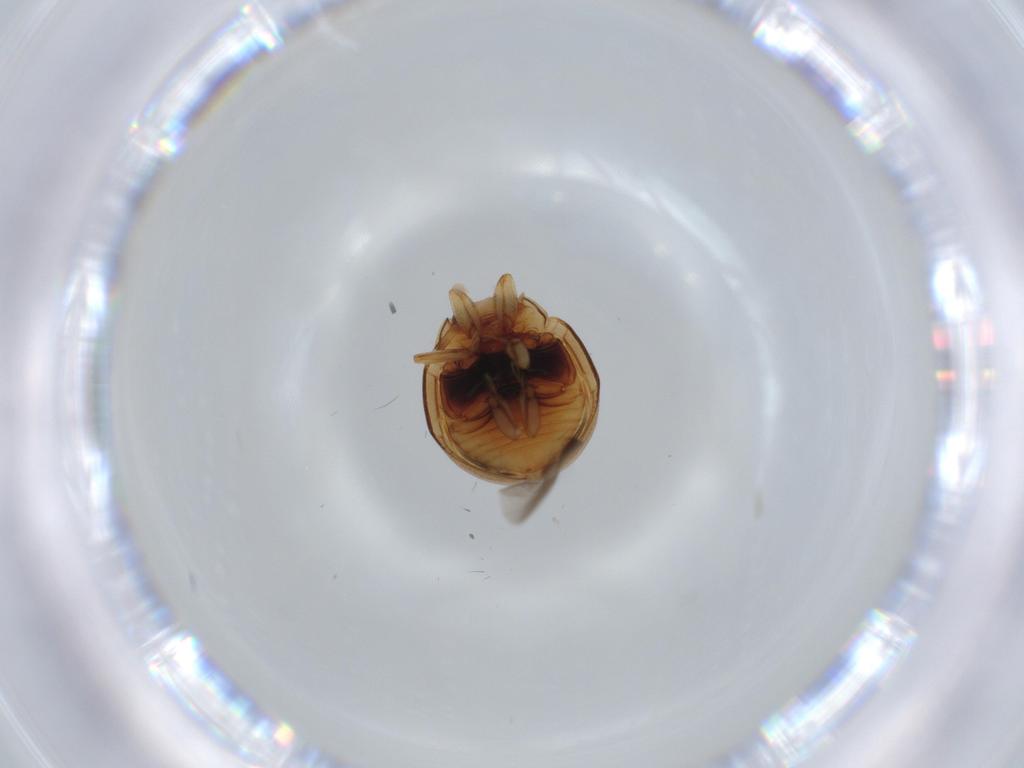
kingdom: Animalia
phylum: Arthropoda
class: Insecta
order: Coleoptera
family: Coccinellidae
